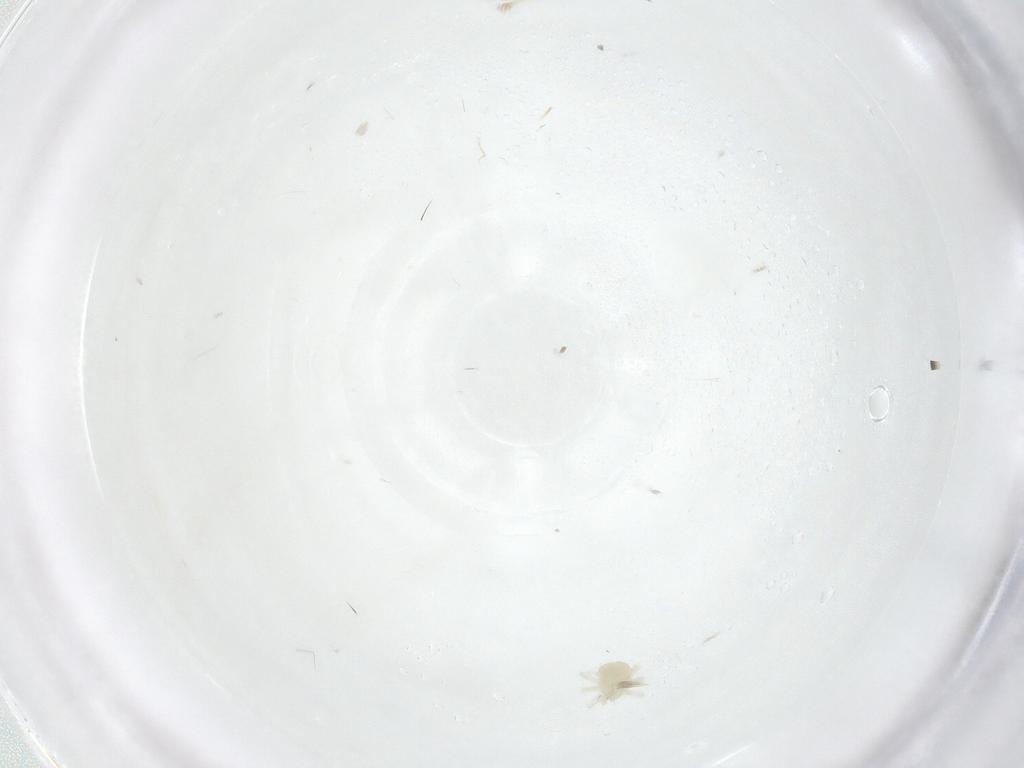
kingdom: Animalia
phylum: Arthropoda
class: Arachnida
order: Trombidiformes
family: Anystidae
